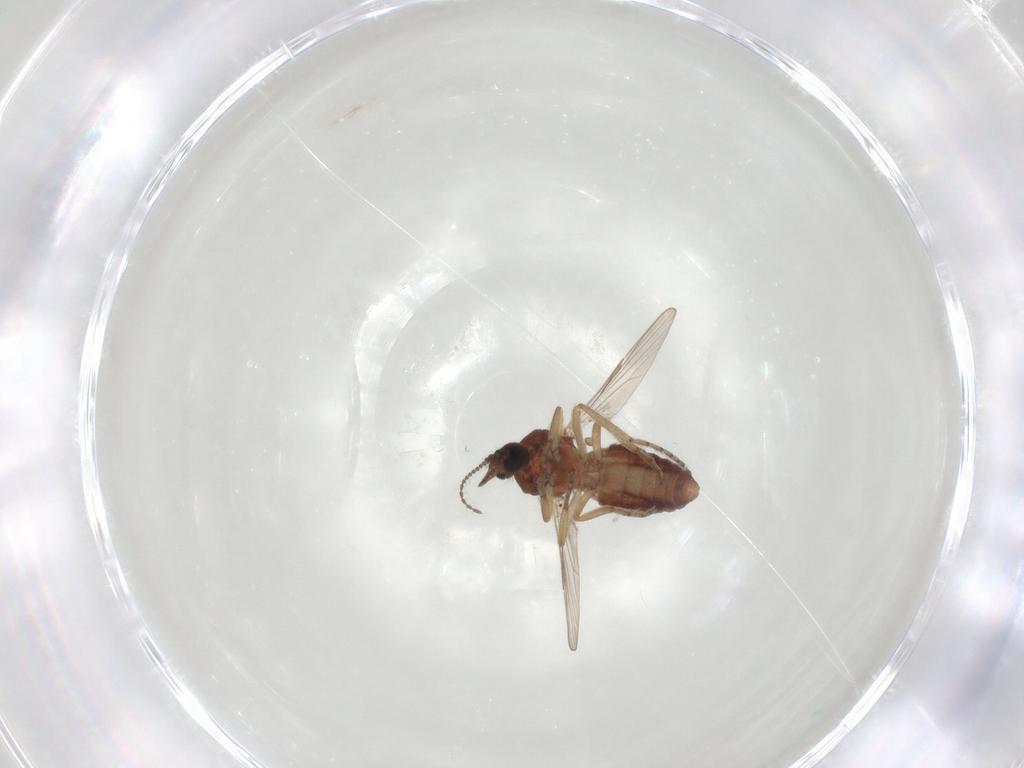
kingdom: Animalia
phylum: Arthropoda
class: Insecta
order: Diptera
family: Ceratopogonidae
